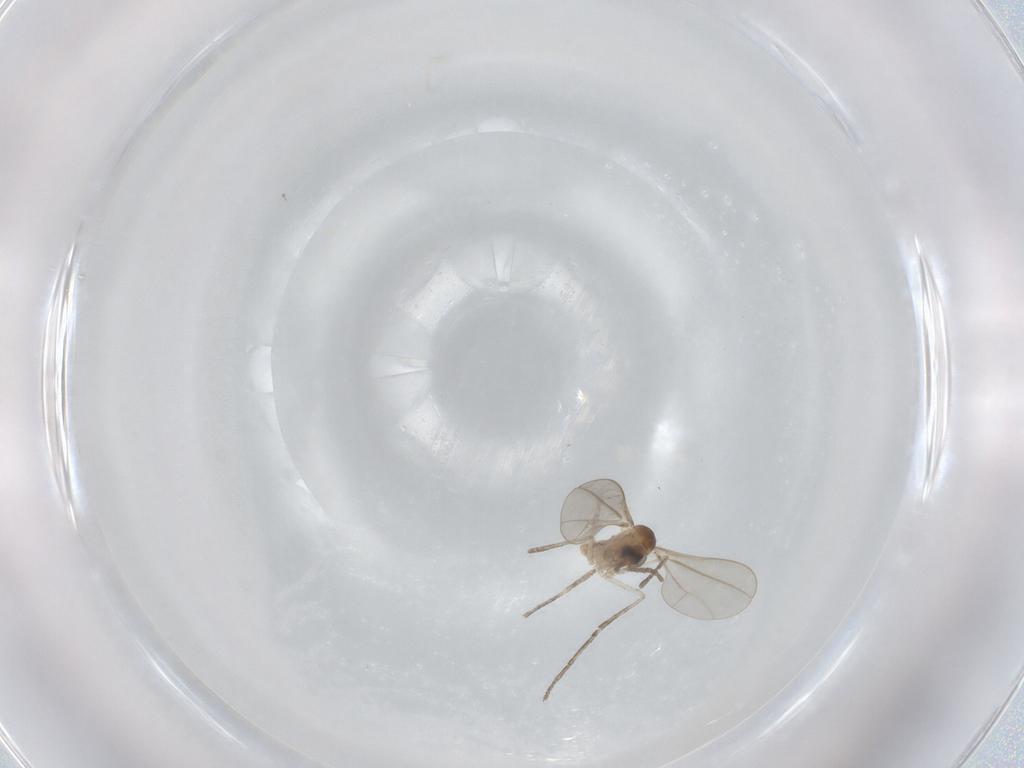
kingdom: Animalia
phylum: Arthropoda
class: Insecta
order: Diptera
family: Cecidomyiidae
